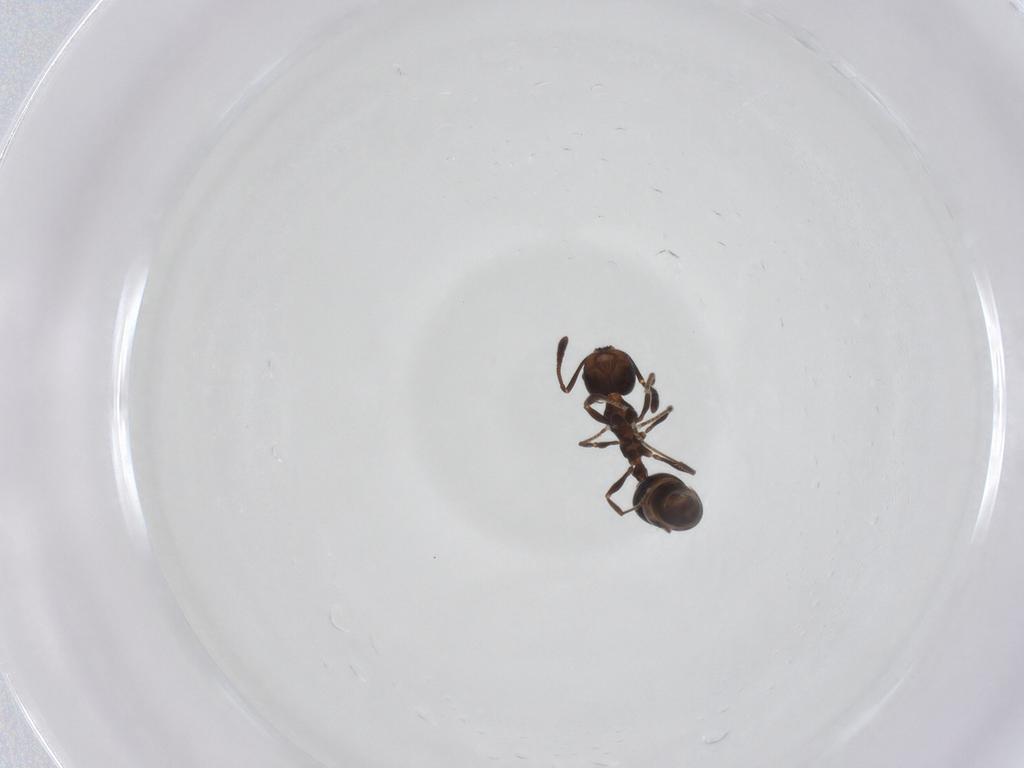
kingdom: Animalia
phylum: Arthropoda
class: Insecta
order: Hymenoptera
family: Formicidae
